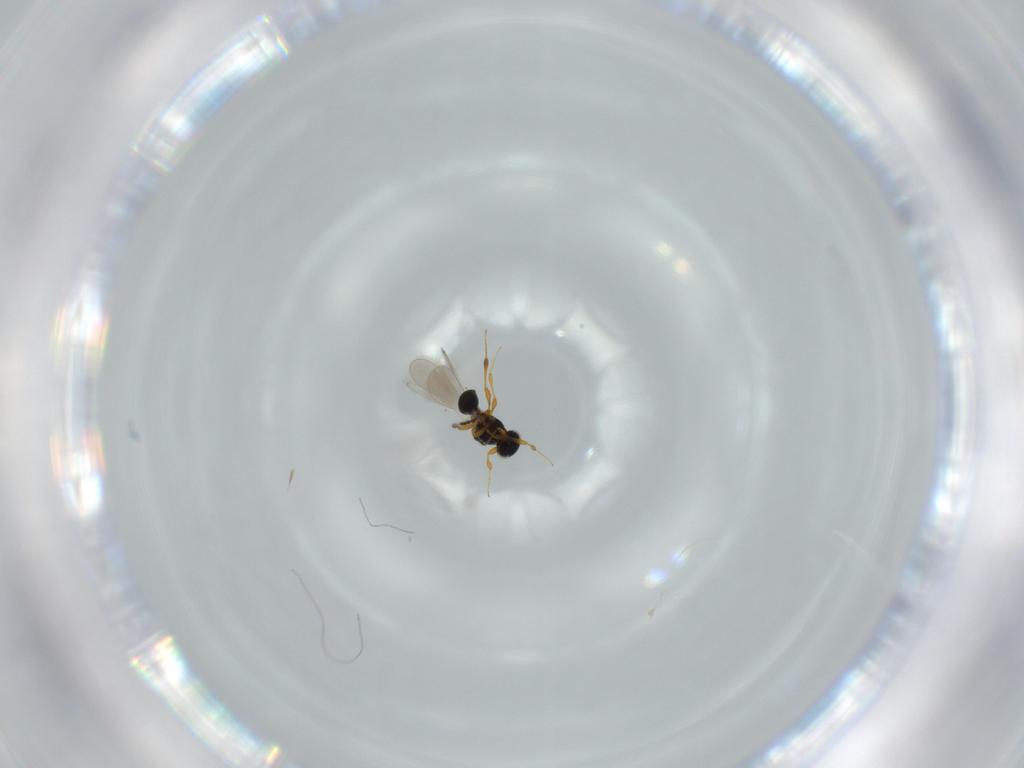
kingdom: Animalia
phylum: Arthropoda
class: Insecta
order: Hymenoptera
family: Platygastridae
